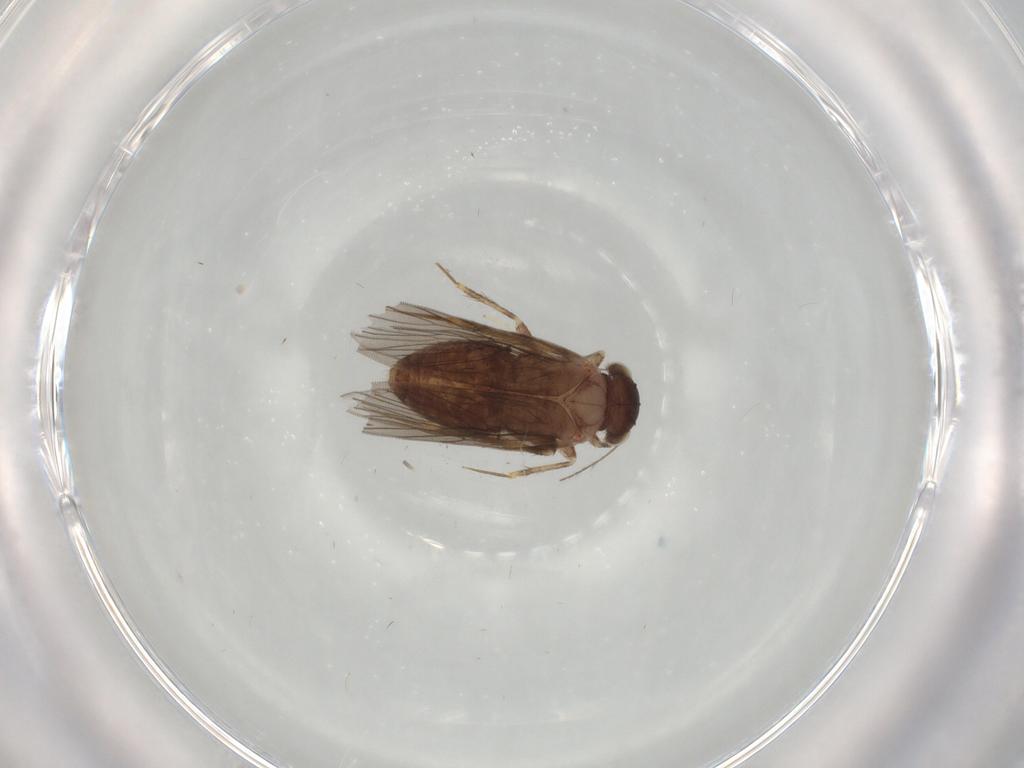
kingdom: Animalia
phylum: Arthropoda
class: Insecta
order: Psocodea
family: Lepidopsocidae
